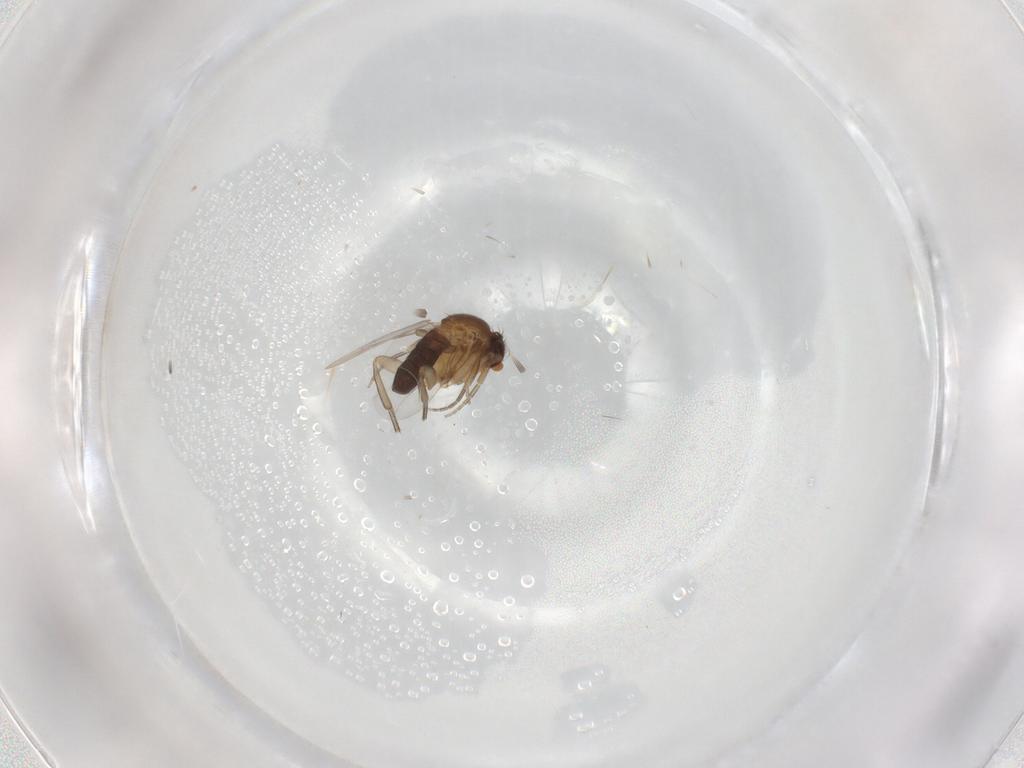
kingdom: Animalia
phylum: Arthropoda
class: Insecta
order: Diptera
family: Phoridae
